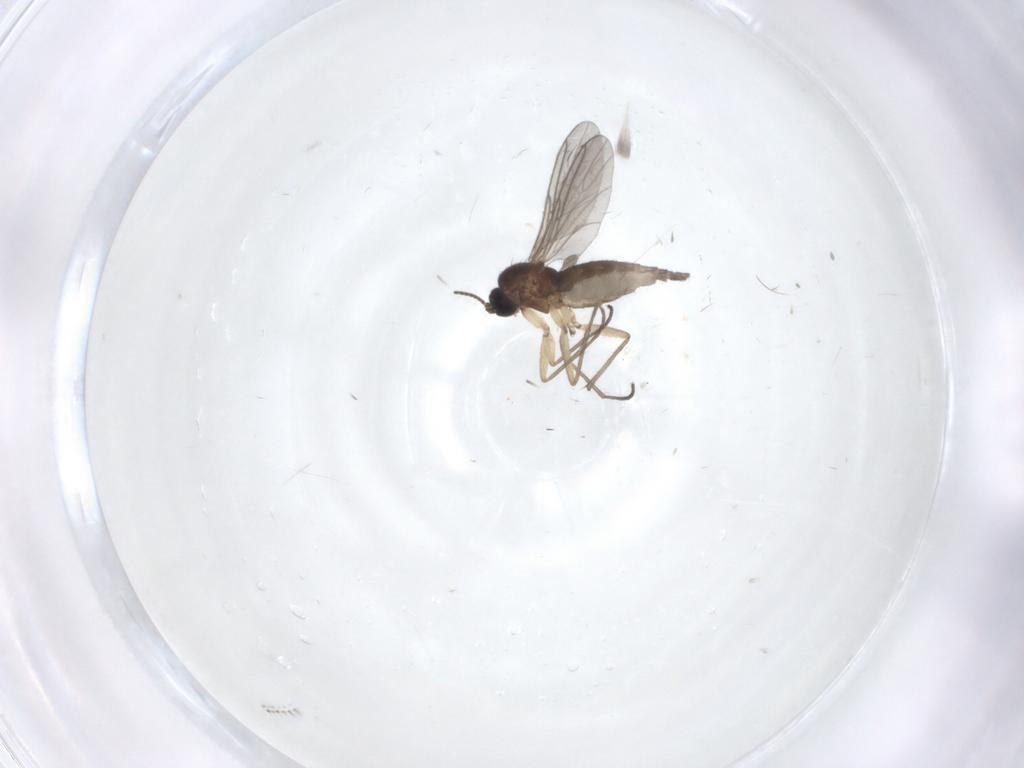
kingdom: Animalia
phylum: Arthropoda
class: Insecta
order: Diptera
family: Sciaridae
